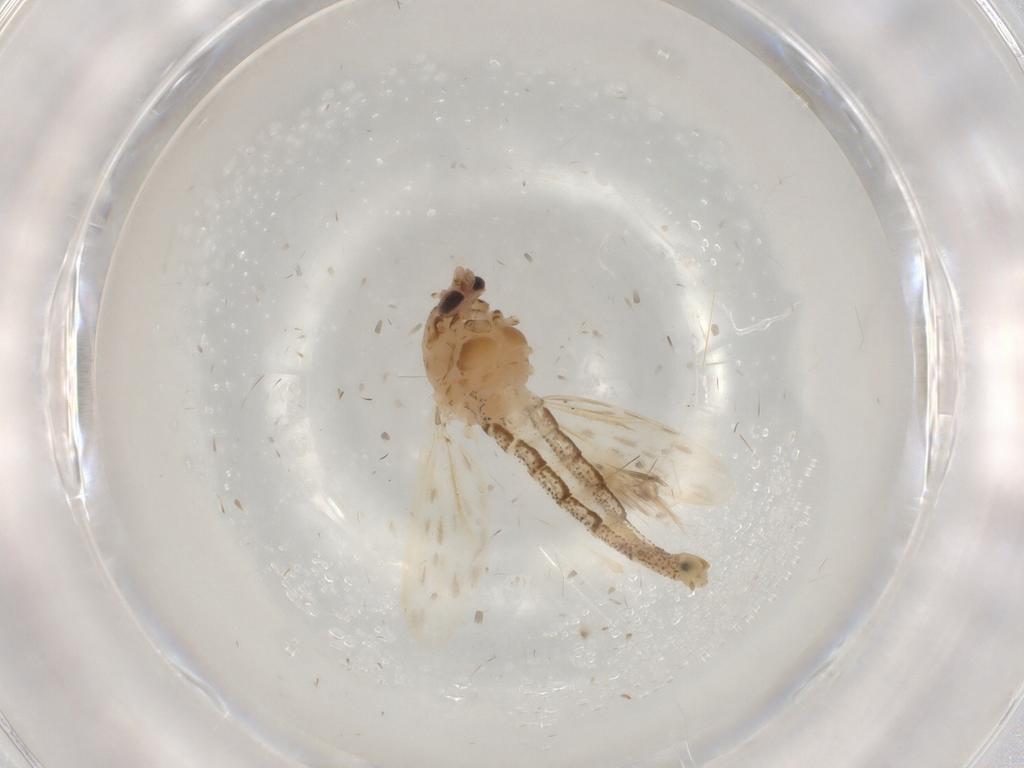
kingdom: Animalia
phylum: Arthropoda
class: Insecta
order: Diptera
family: Chaoboridae
